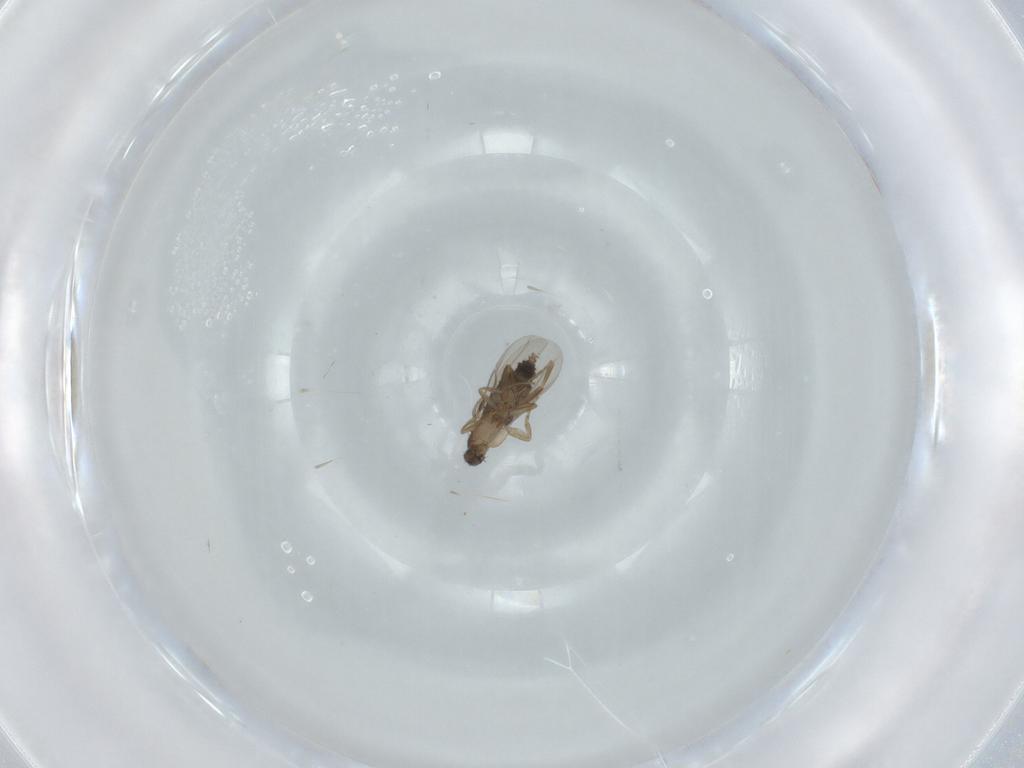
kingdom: Animalia
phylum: Arthropoda
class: Insecta
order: Diptera
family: Phoridae
